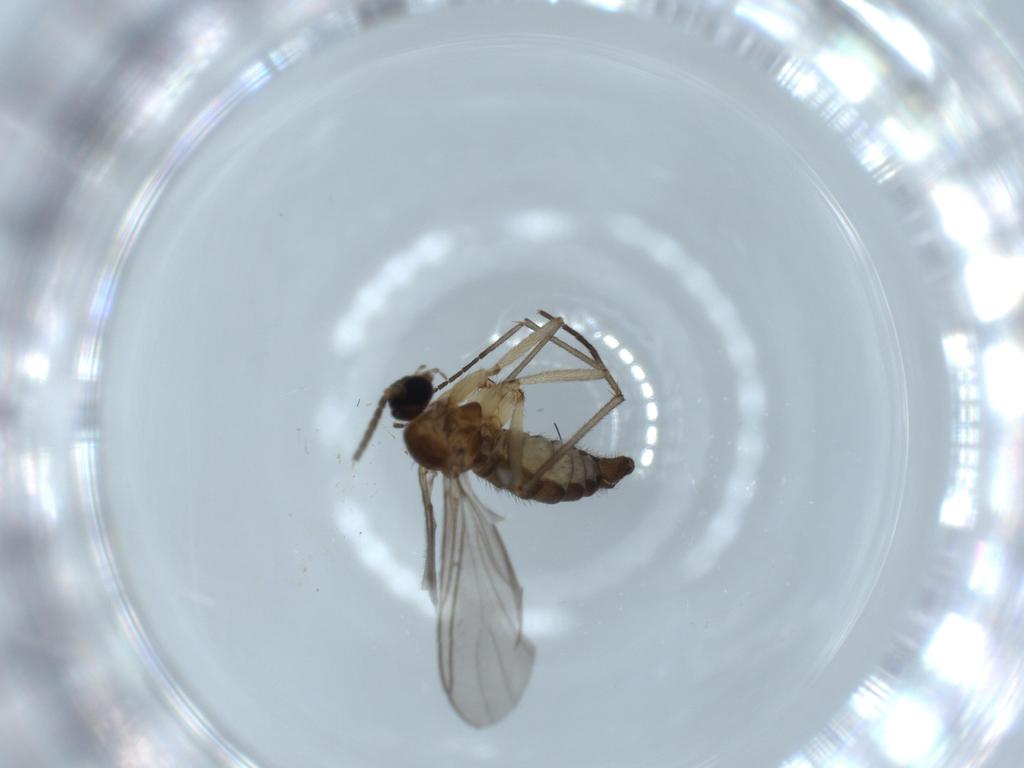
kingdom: Animalia
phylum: Arthropoda
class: Insecta
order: Diptera
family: Chloropidae
